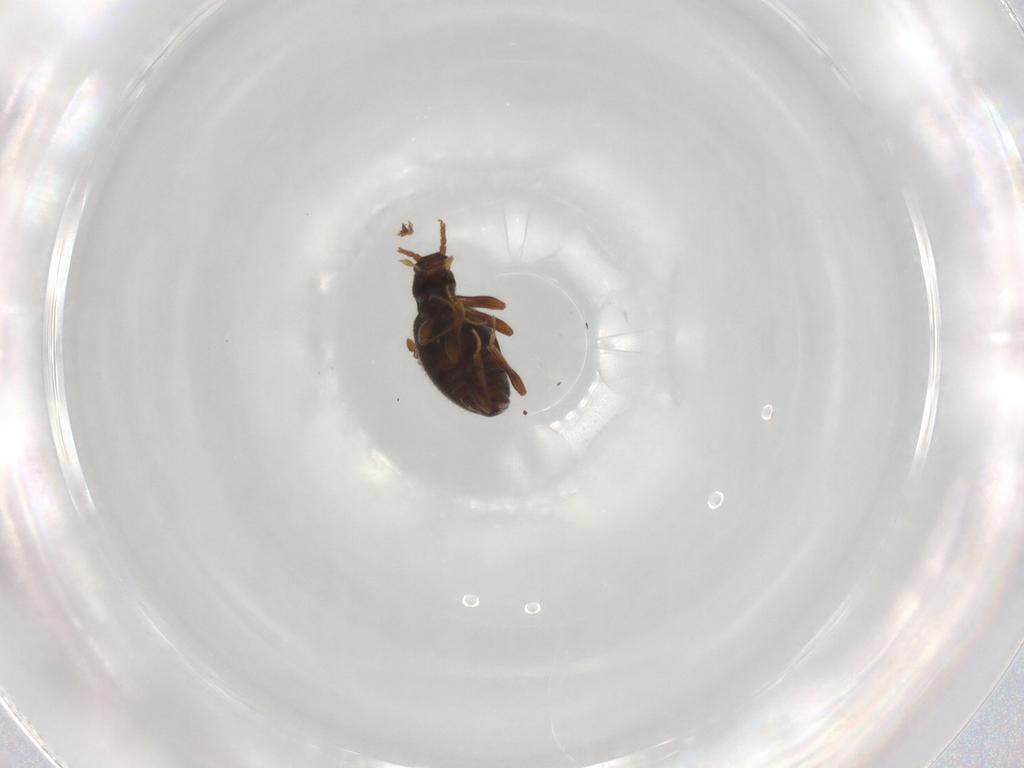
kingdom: Animalia
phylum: Arthropoda
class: Insecta
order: Coleoptera
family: Staphylinidae
